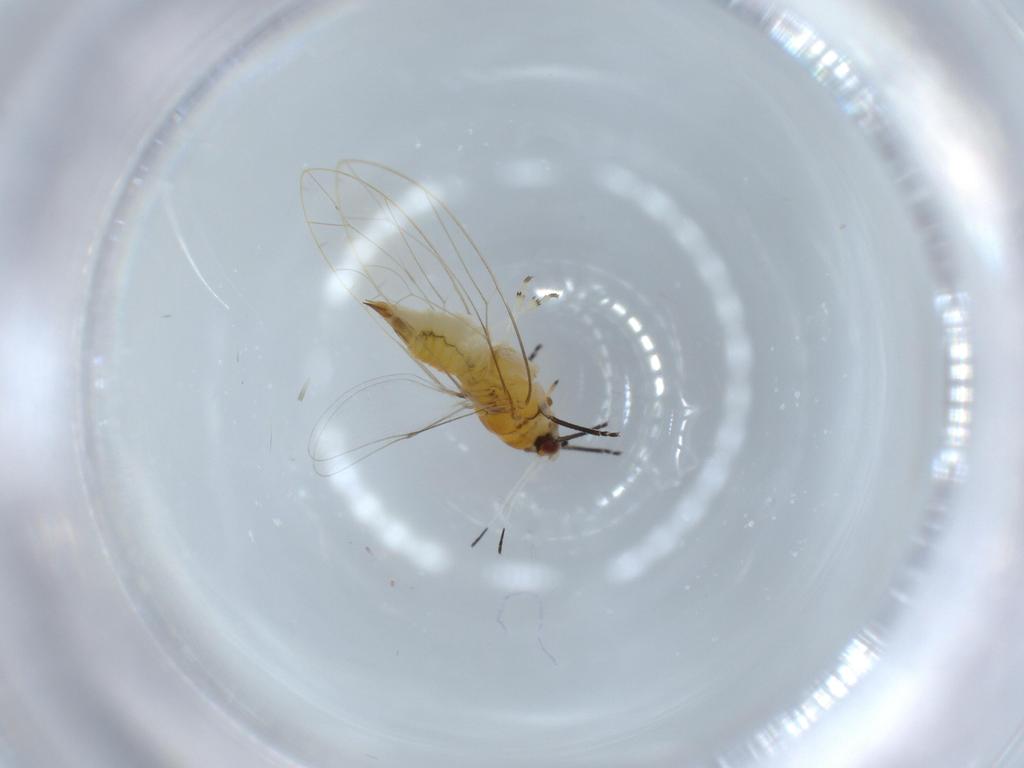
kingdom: Animalia
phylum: Arthropoda
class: Insecta
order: Hemiptera
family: Triozidae
